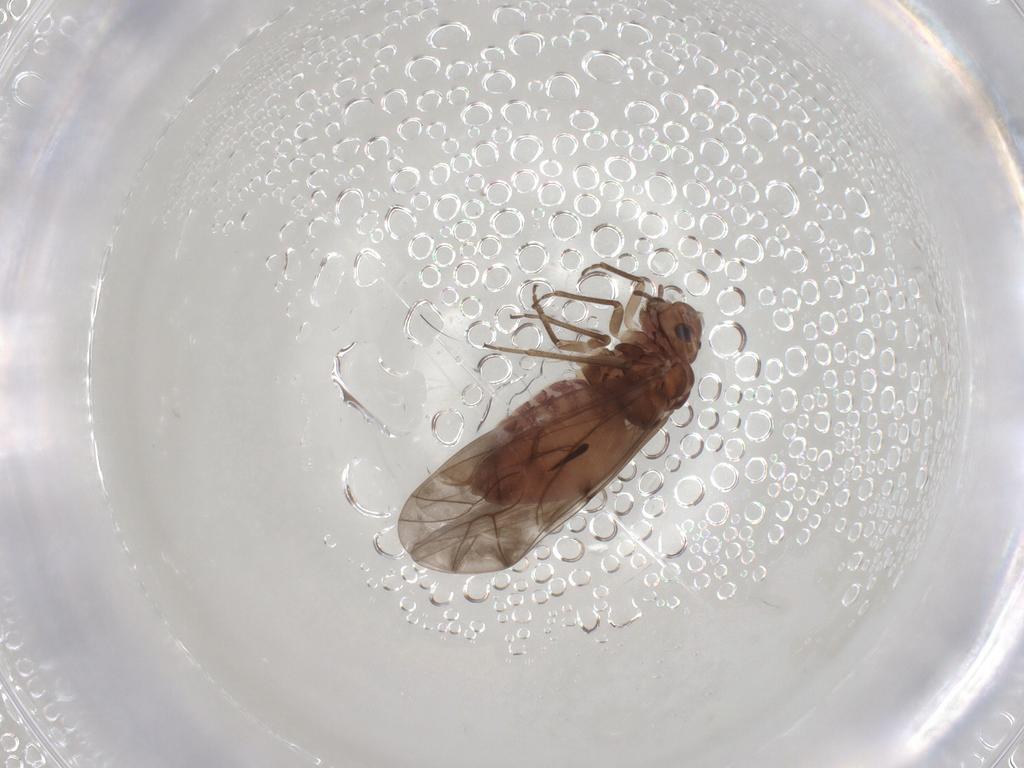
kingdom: Animalia
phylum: Arthropoda
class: Insecta
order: Psocodea
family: Peripsocidae
